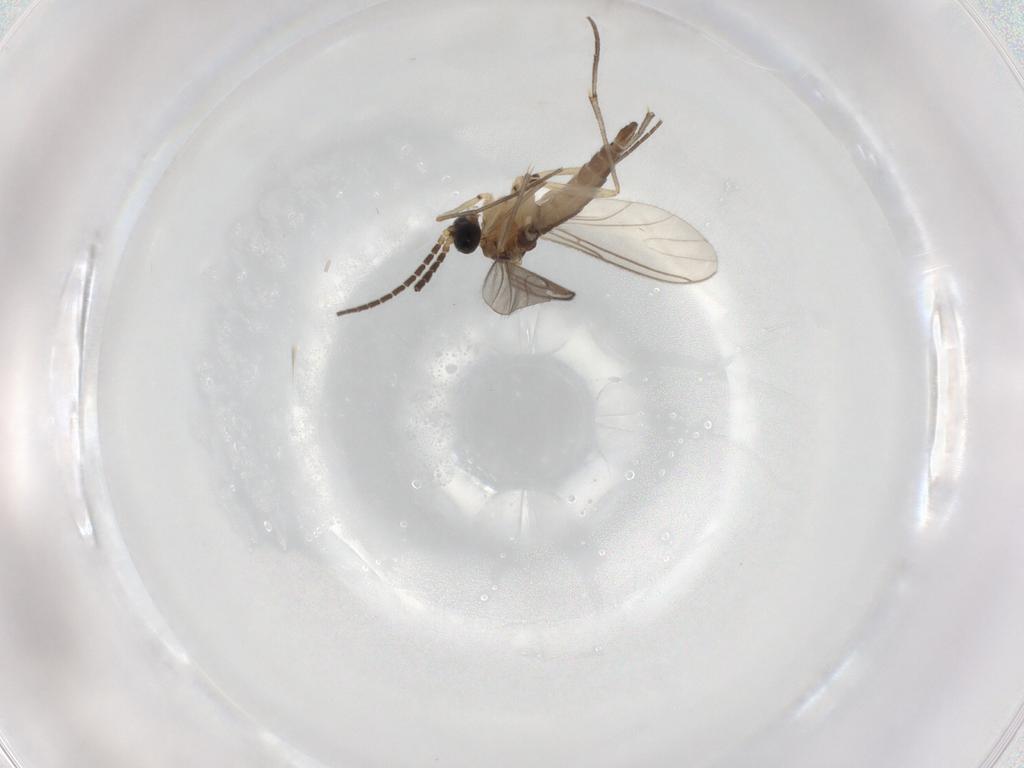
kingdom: Animalia
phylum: Arthropoda
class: Insecta
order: Diptera
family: Sciaridae
